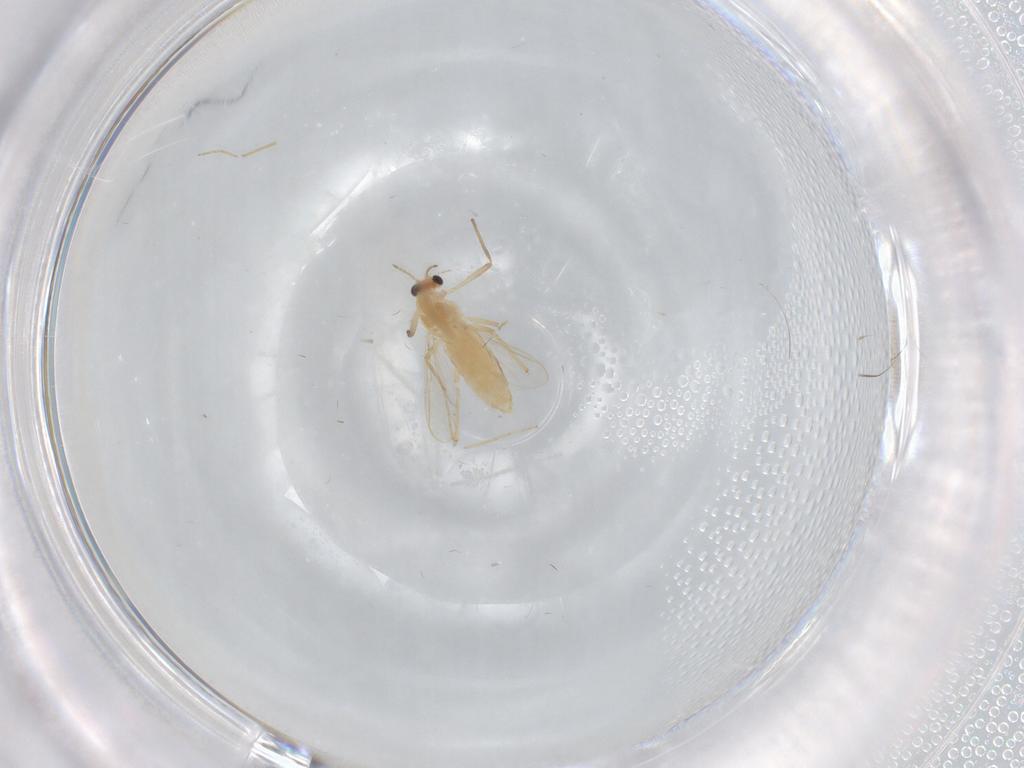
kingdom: Animalia
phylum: Arthropoda
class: Insecta
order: Diptera
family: Chironomidae
